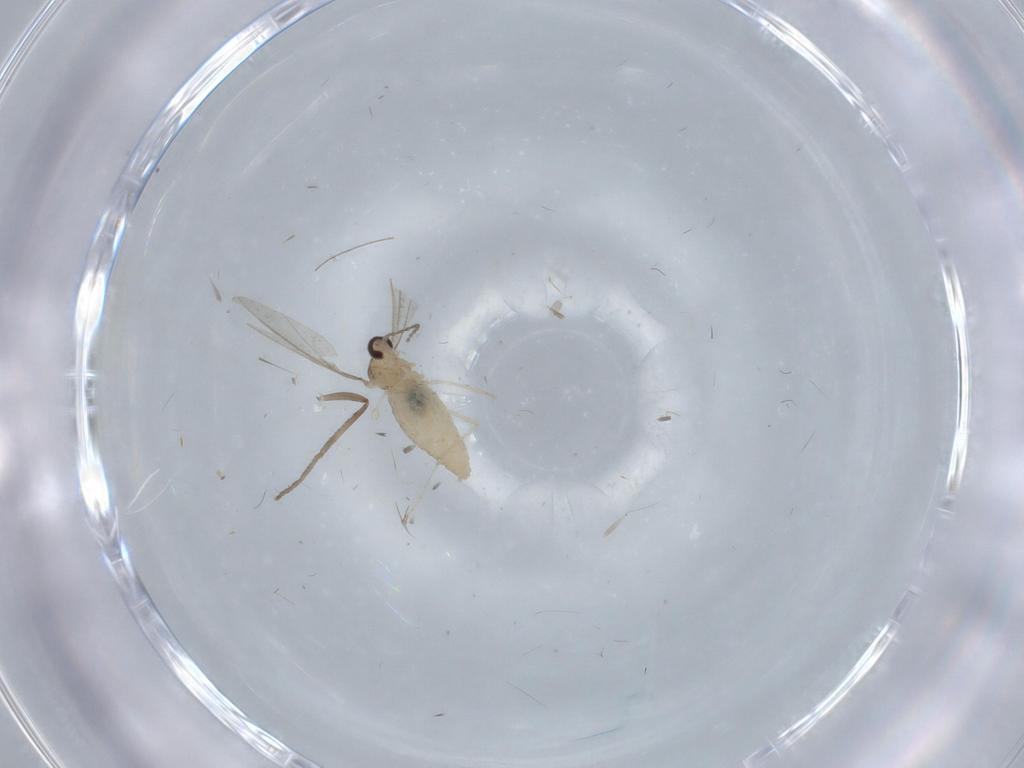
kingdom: Animalia
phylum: Arthropoda
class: Insecta
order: Diptera
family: Cecidomyiidae
